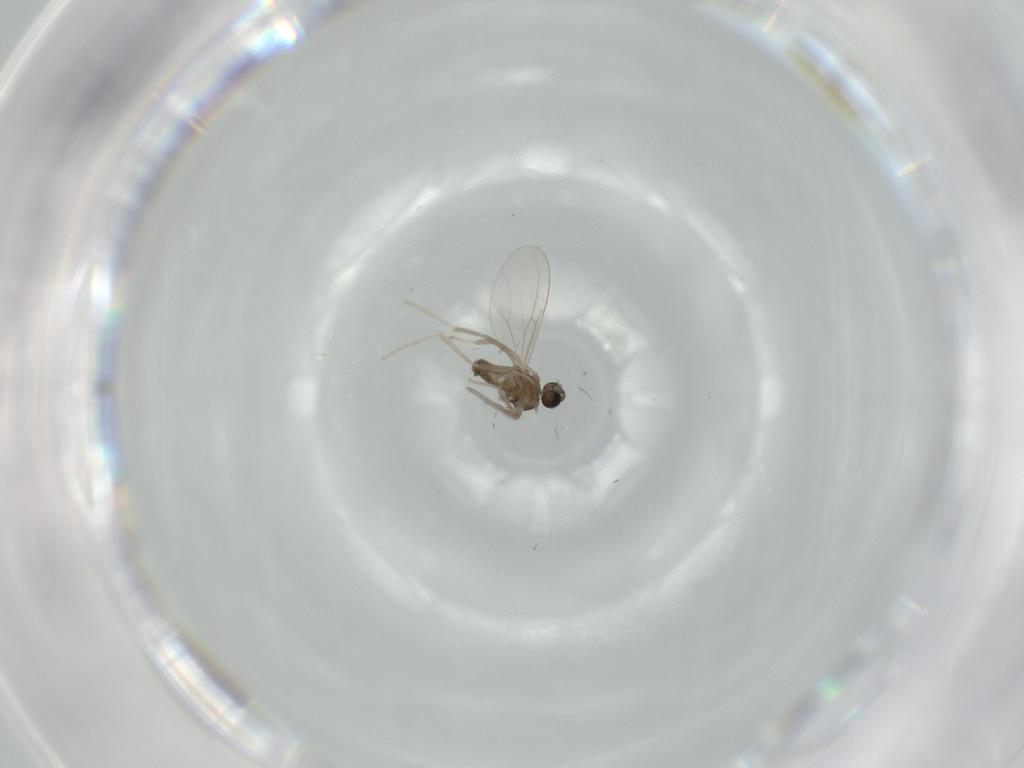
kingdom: Animalia
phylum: Arthropoda
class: Insecta
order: Diptera
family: Cecidomyiidae
